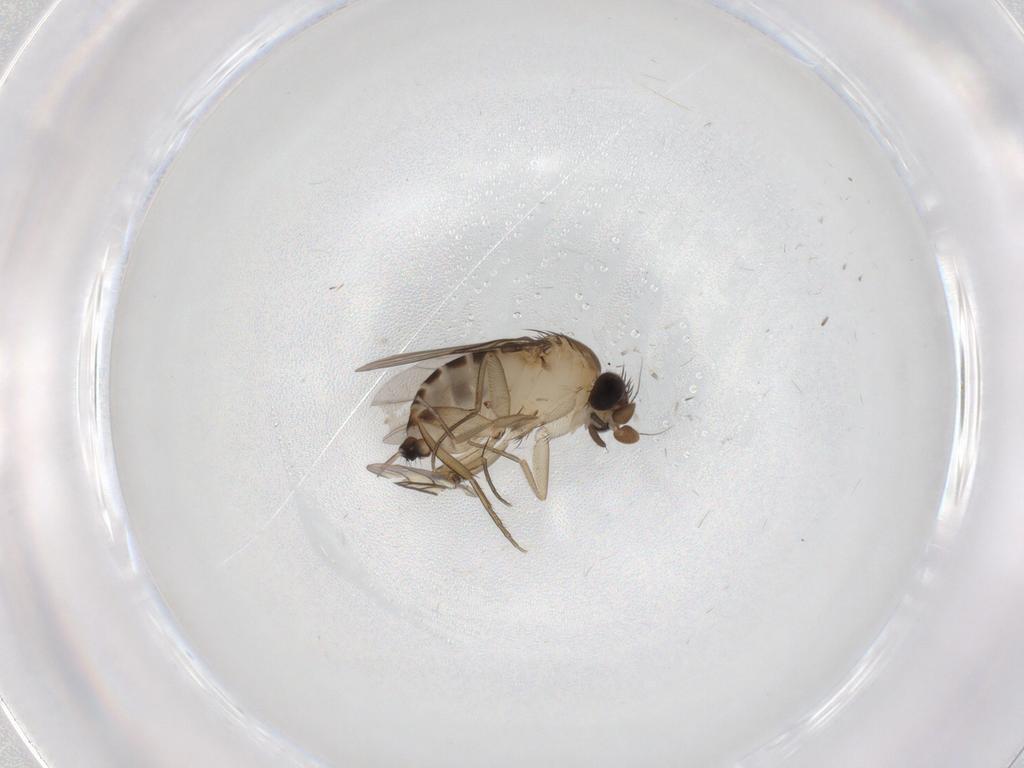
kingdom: Animalia
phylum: Arthropoda
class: Insecta
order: Diptera
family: Phoridae
